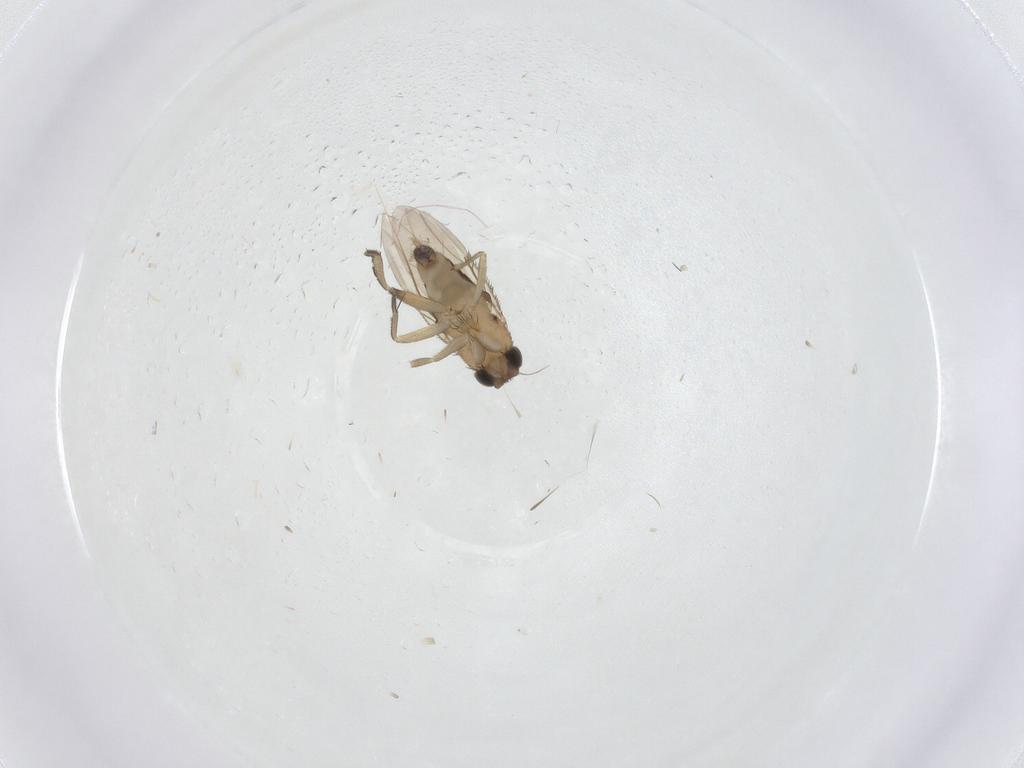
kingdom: Animalia
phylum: Arthropoda
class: Insecta
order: Diptera
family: Phoridae
